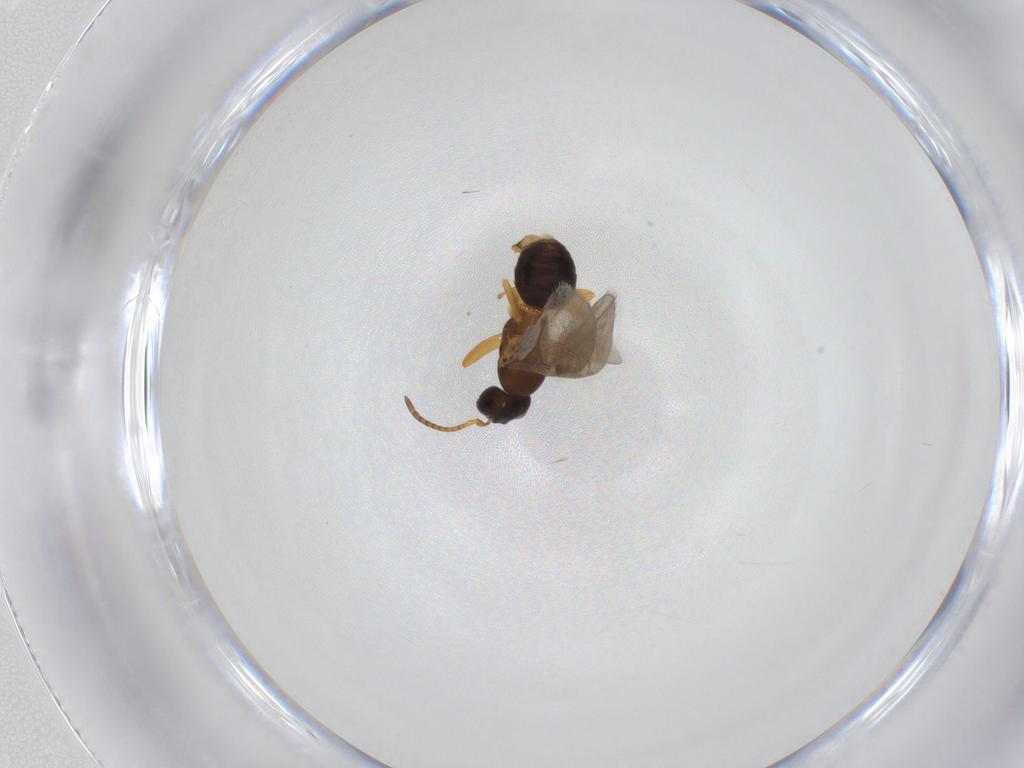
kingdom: Animalia
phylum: Arthropoda
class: Insecta
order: Hymenoptera
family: Formicidae
